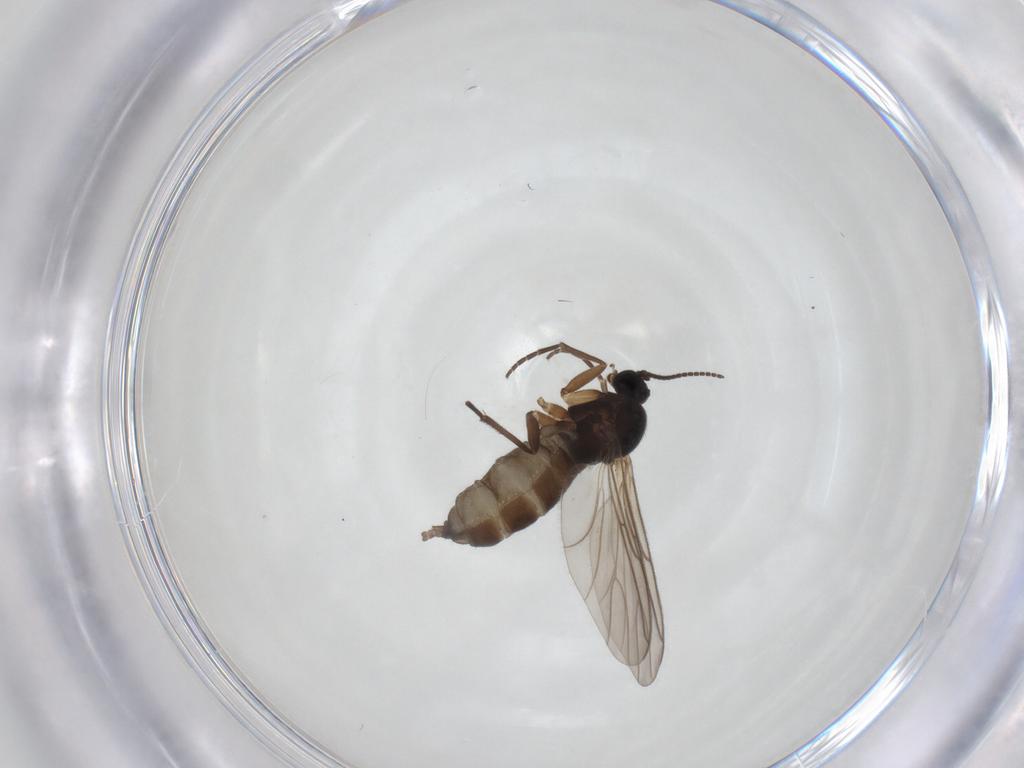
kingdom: Animalia
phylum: Arthropoda
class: Insecta
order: Diptera
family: Sciaridae
